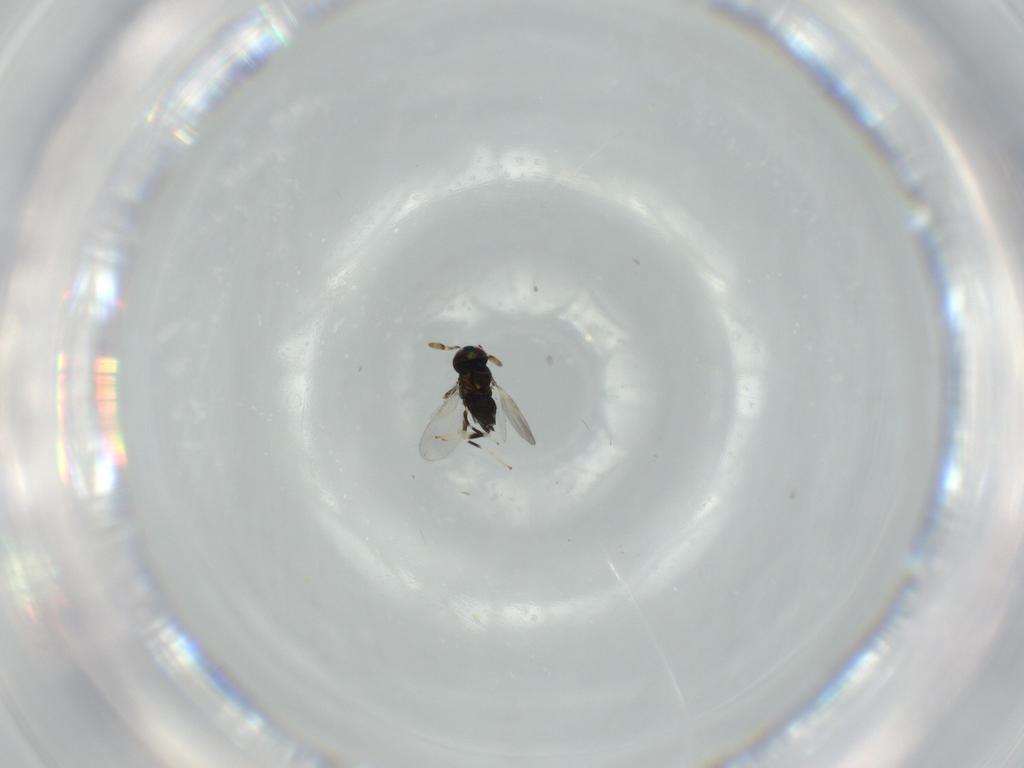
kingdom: Animalia
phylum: Arthropoda
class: Insecta
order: Hymenoptera
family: Aphelinidae
